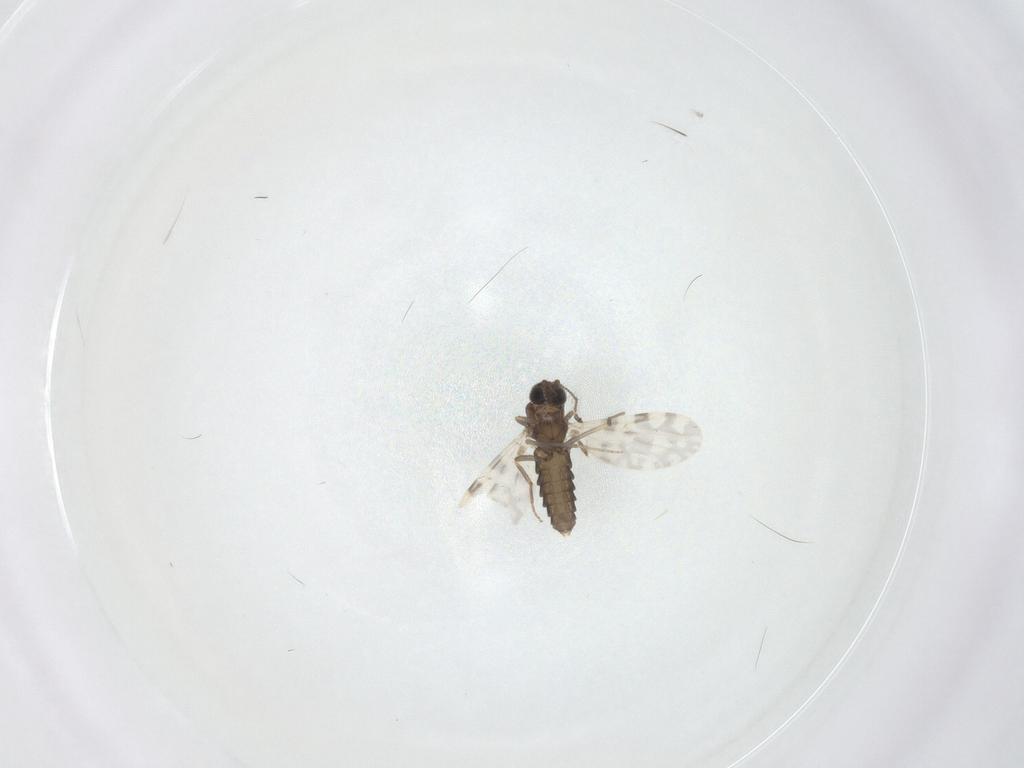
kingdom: Animalia
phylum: Arthropoda
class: Insecta
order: Diptera
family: Ceratopogonidae
